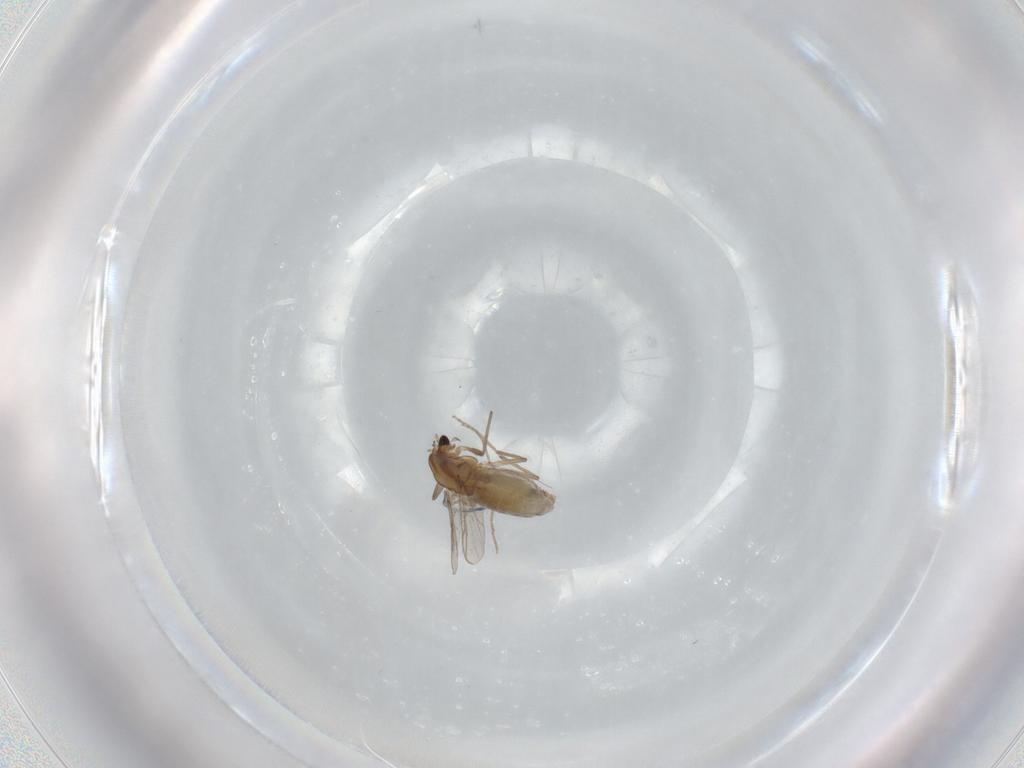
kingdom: Animalia
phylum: Arthropoda
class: Insecta
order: Diptera
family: Chironomidae
